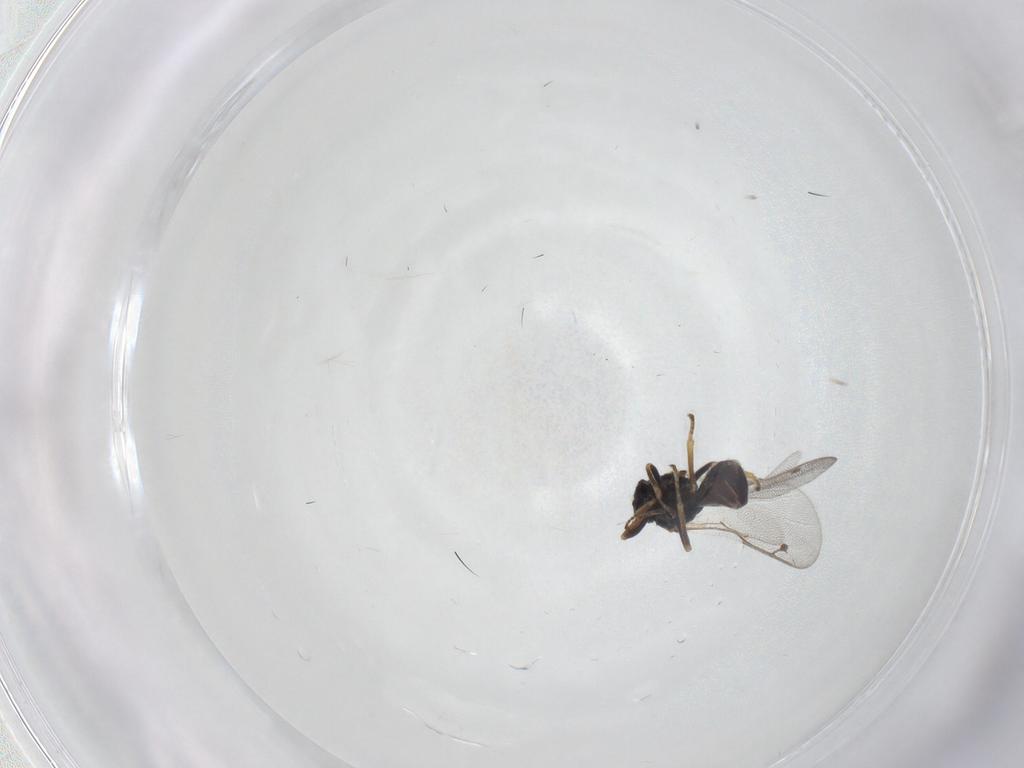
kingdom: Animalia
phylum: Arthropoda
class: Insecta
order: Hymenoptera
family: Pteromalidae
